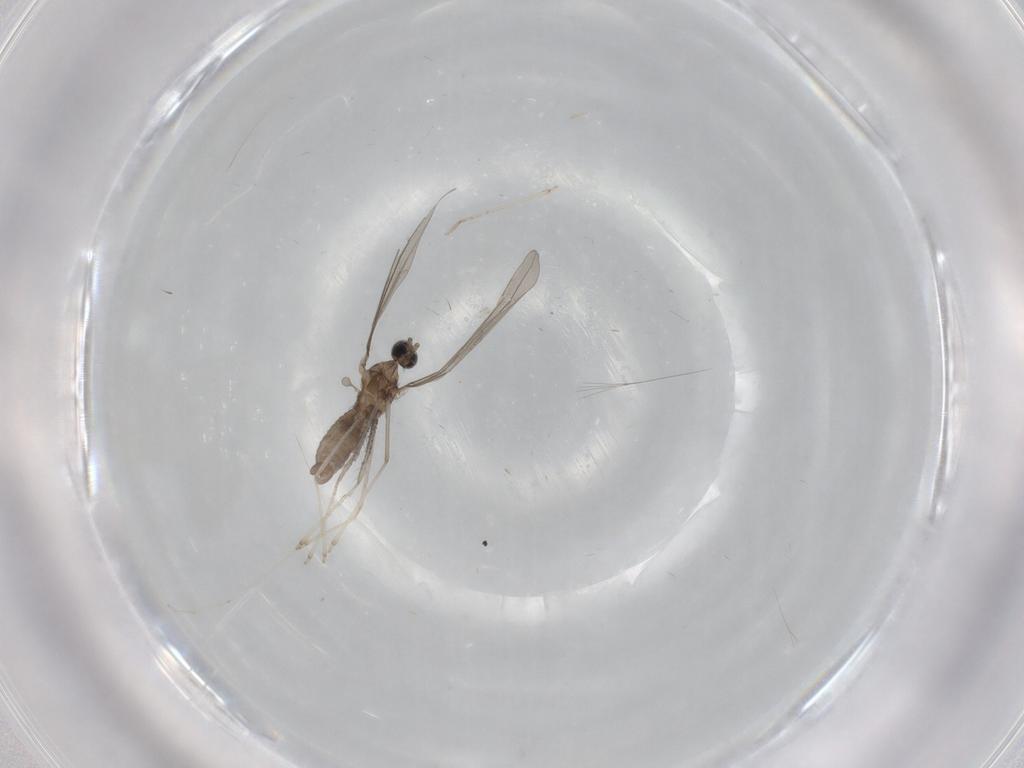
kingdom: Animalia
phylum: Arthropoda
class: Insecta
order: Diptera
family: Cecidomyiidae
